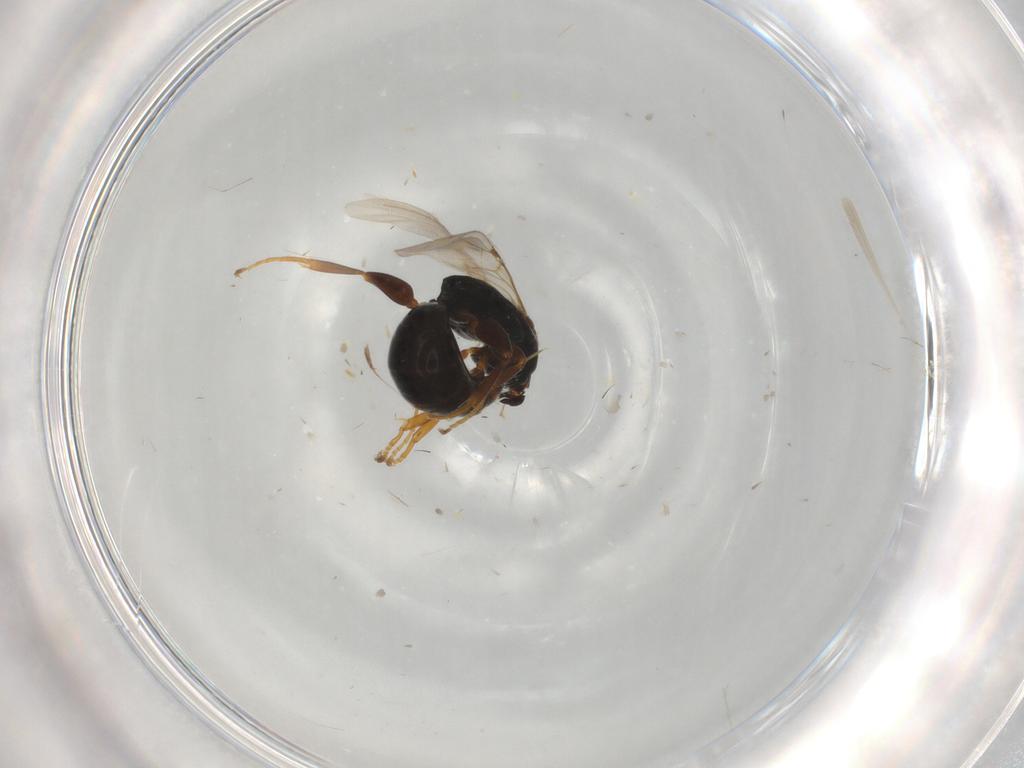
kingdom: Animalia
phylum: Arthropoda
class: Insecta
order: Hymenoptera
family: Bethylidae
